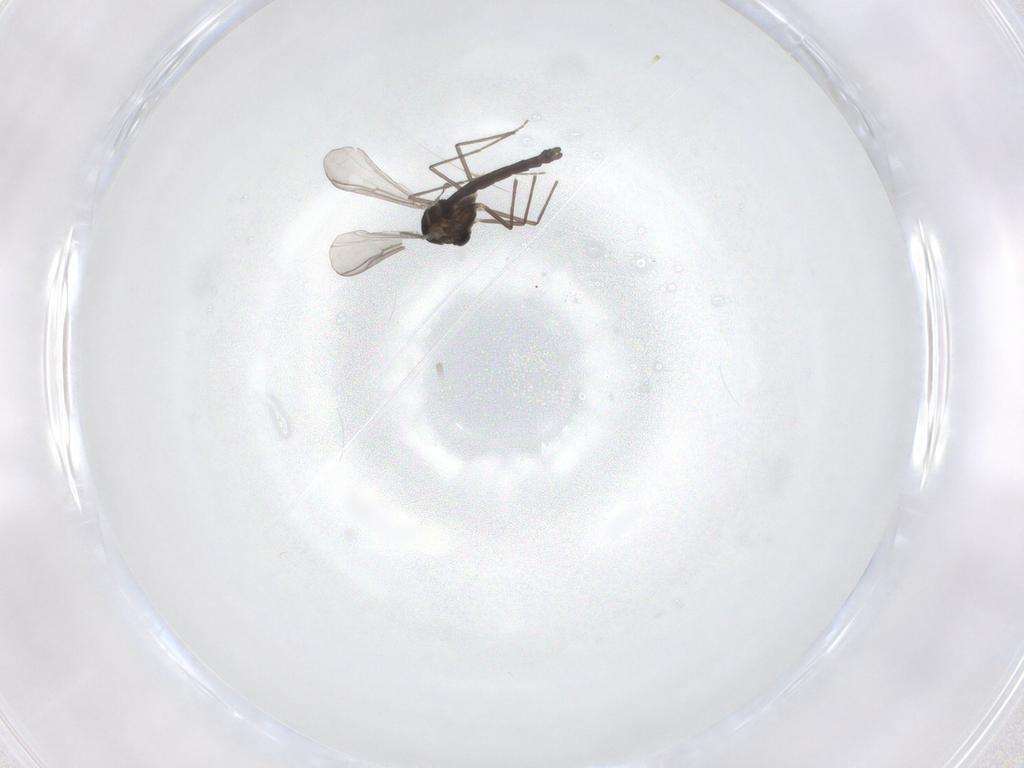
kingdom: Animalia
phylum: Arthropoda
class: Insecta
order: Diptera
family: Chironomidae
